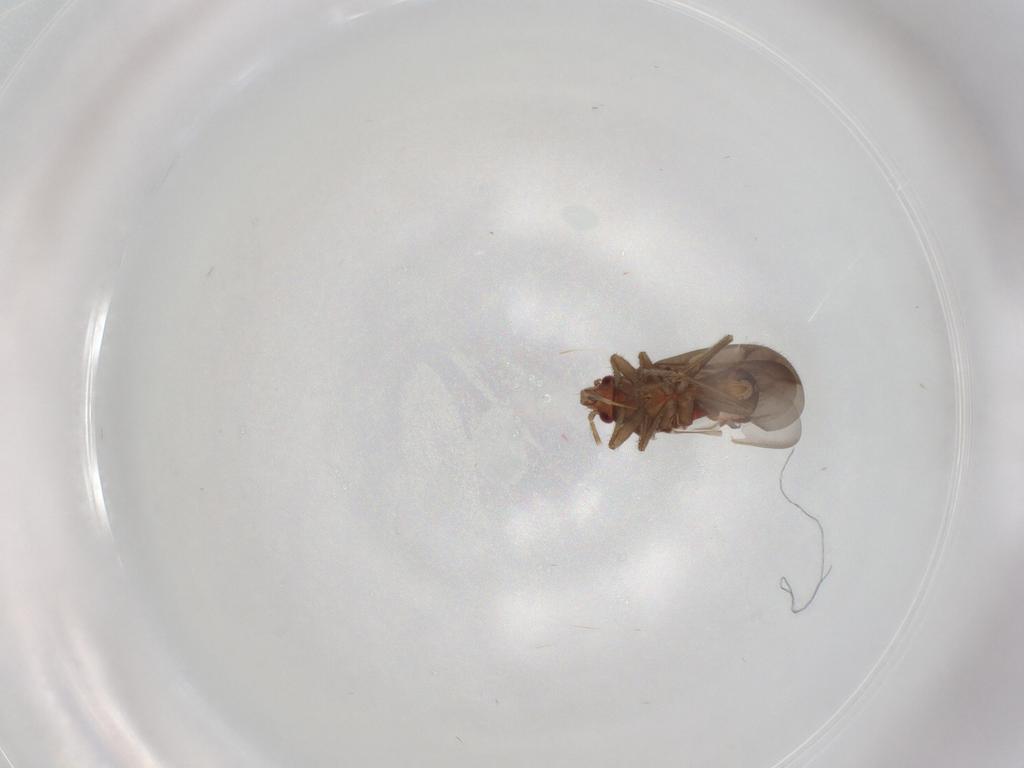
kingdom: Animalia
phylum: Arthropoda
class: Insecta
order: Hemiptera
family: Ceratocombidae
